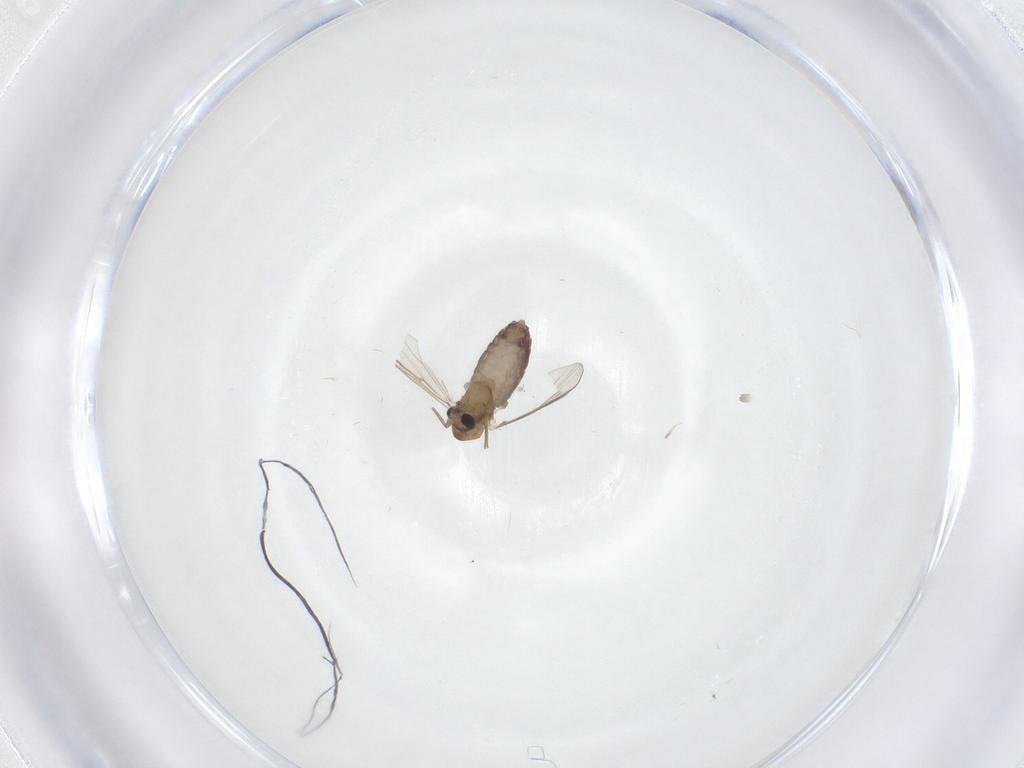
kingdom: Animalia
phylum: Arthropoda
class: Insecta
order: Diptera
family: Chironomidae
